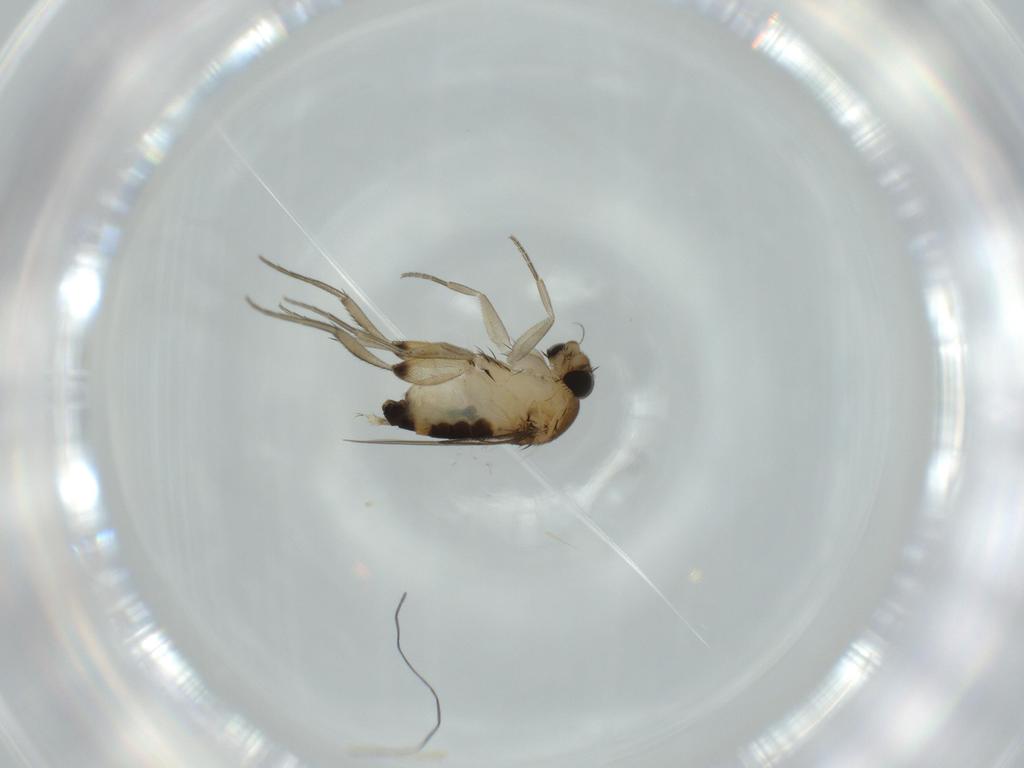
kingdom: Animalia
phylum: Arthropoda
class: Insecta
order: Diptera
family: Phoridae
